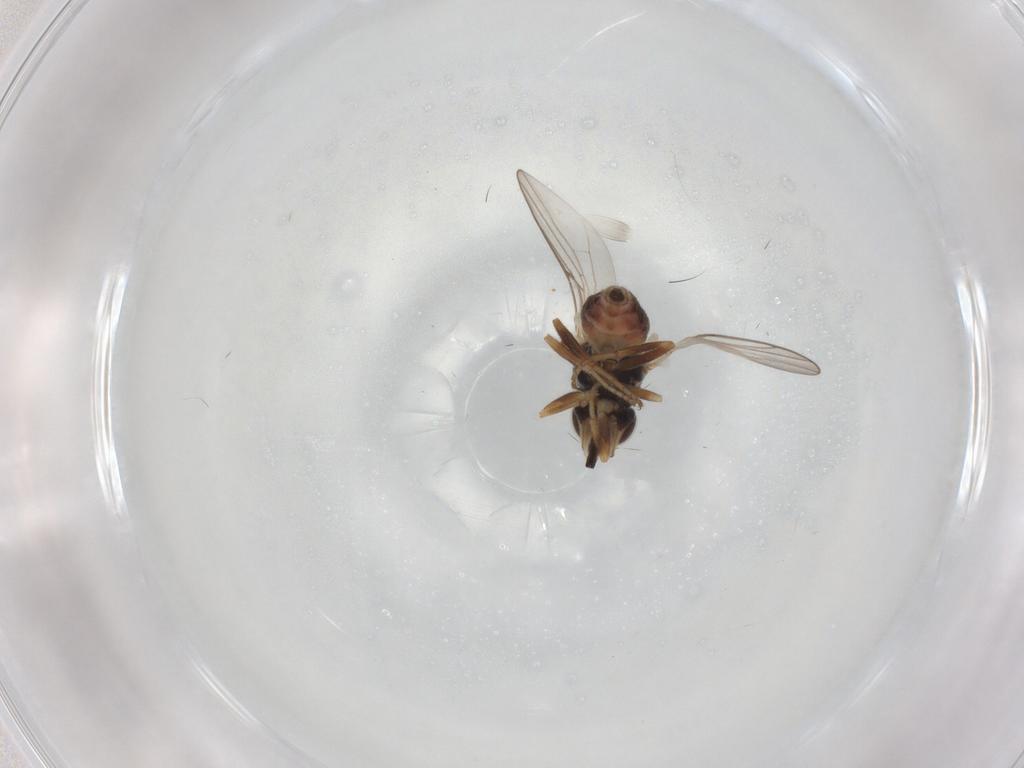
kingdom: Animalia
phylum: Arthropoda
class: Insecta
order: Diptera
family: Chloropidae
